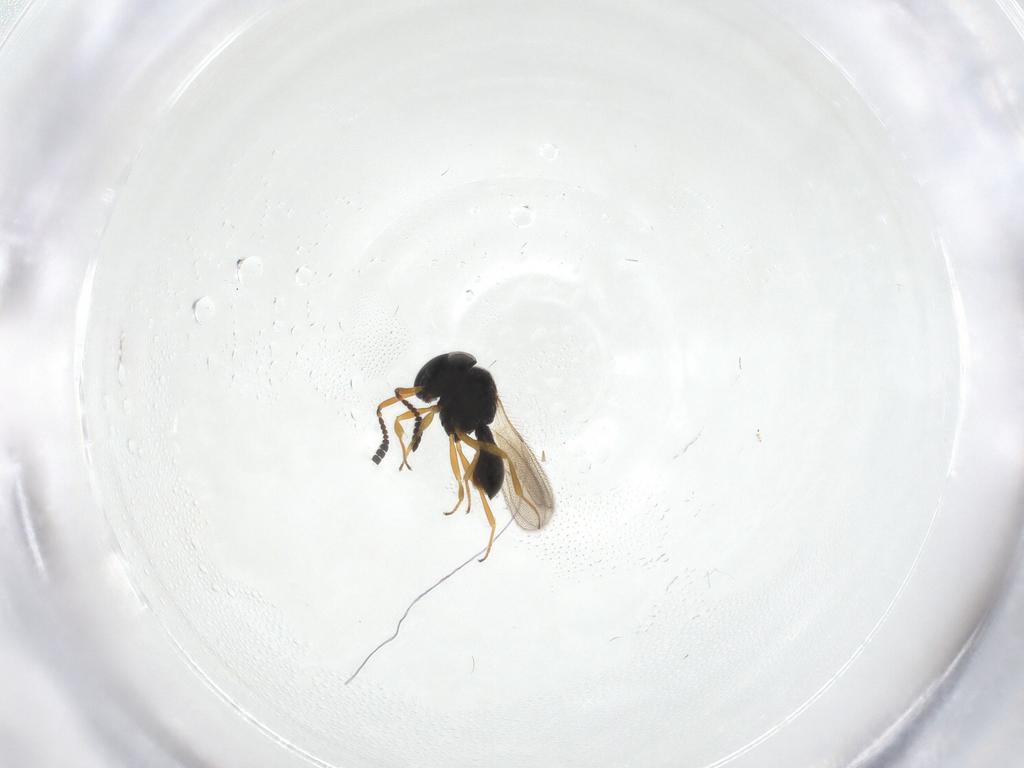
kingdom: Animalia
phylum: Arthropoda
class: Insecta
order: Hymenoptera
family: Scelionidae
